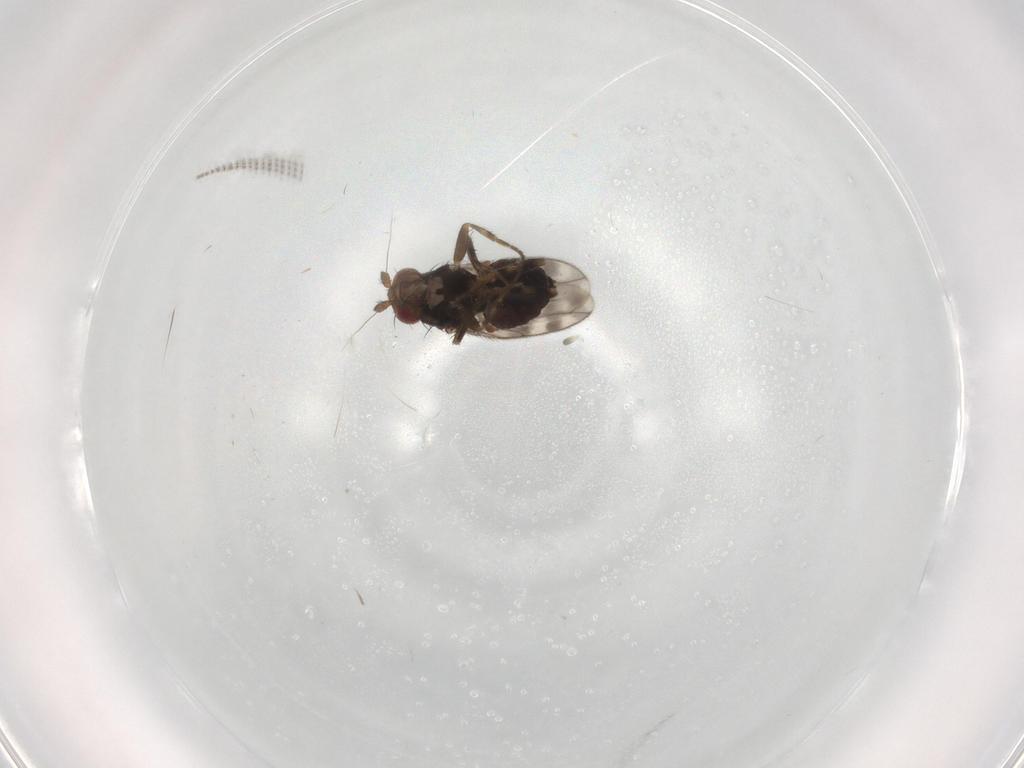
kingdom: Animalia
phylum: Arthropoda
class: Insecta
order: Diptera
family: Sphaeroceridae
